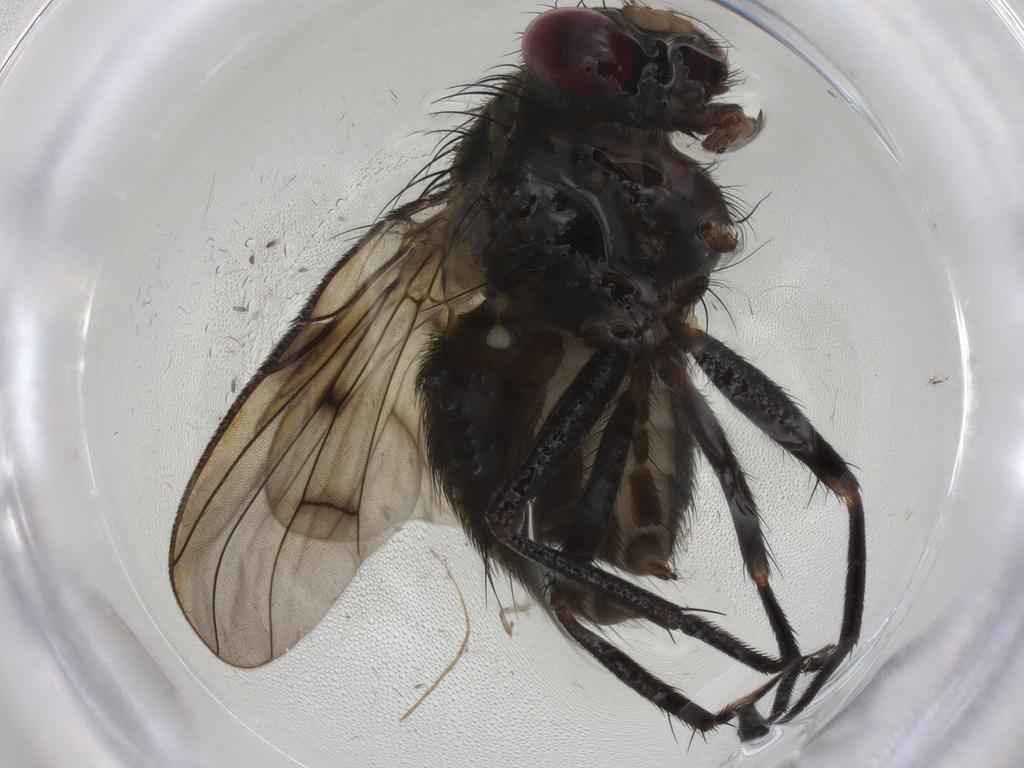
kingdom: Animalia
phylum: Arthropoda
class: Insecta
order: Diptera
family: Muscidae
